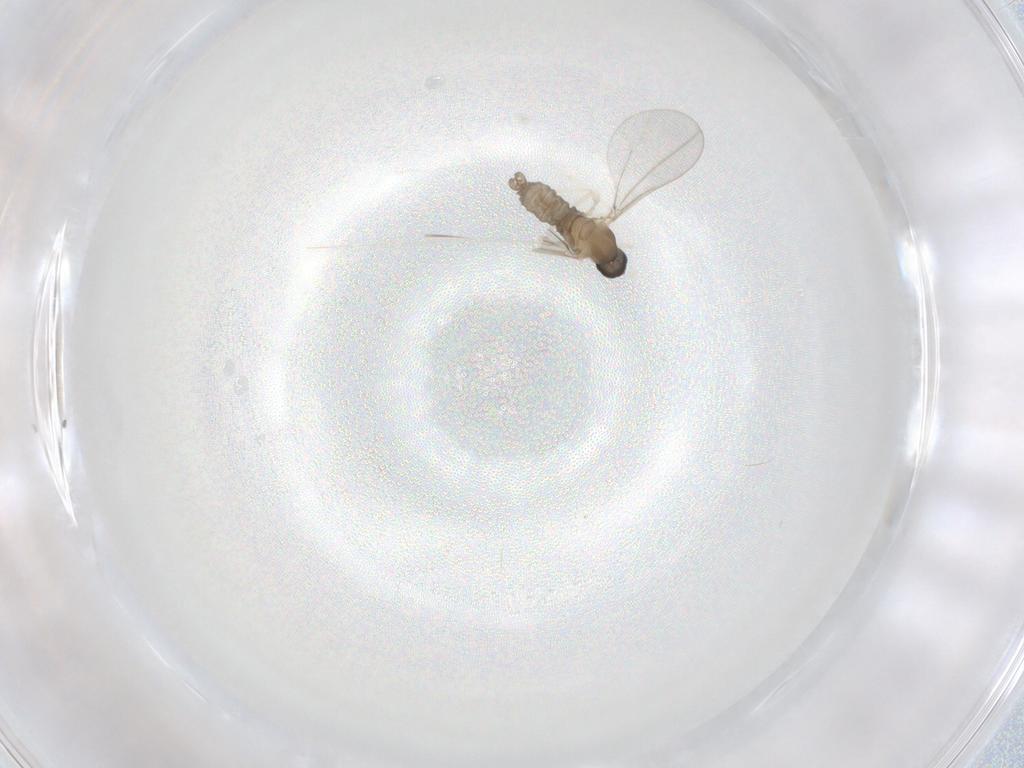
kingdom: Animalia
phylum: Arthropoda
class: Insecta
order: Diptera
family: Cecidomyiidae
